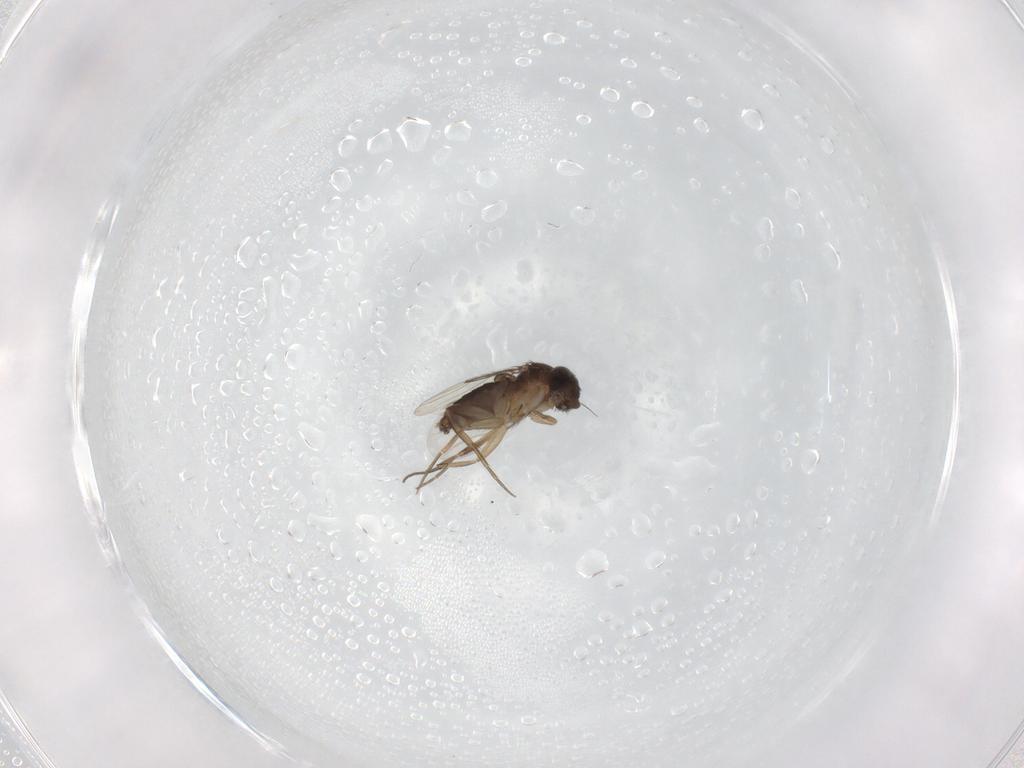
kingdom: Animalia
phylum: Arthropoda
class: Insecta
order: Diptera
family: Phoridae
